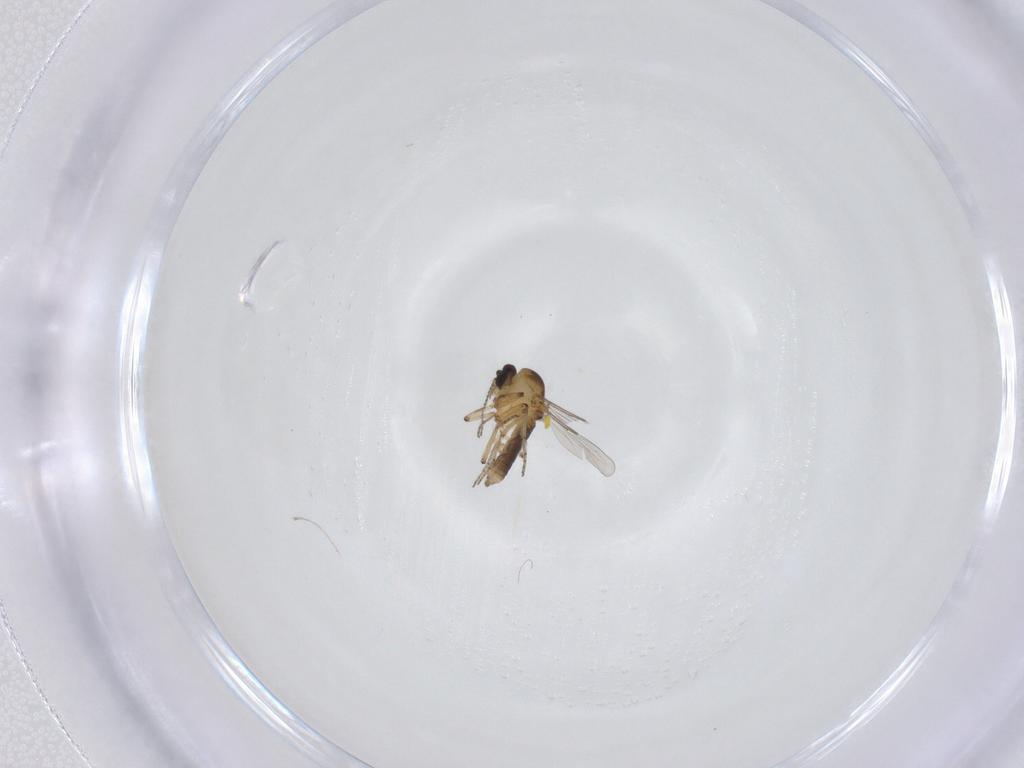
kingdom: Animalia
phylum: Arthropoda
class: Insecta
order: Diptera
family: Ceratopogonidae
